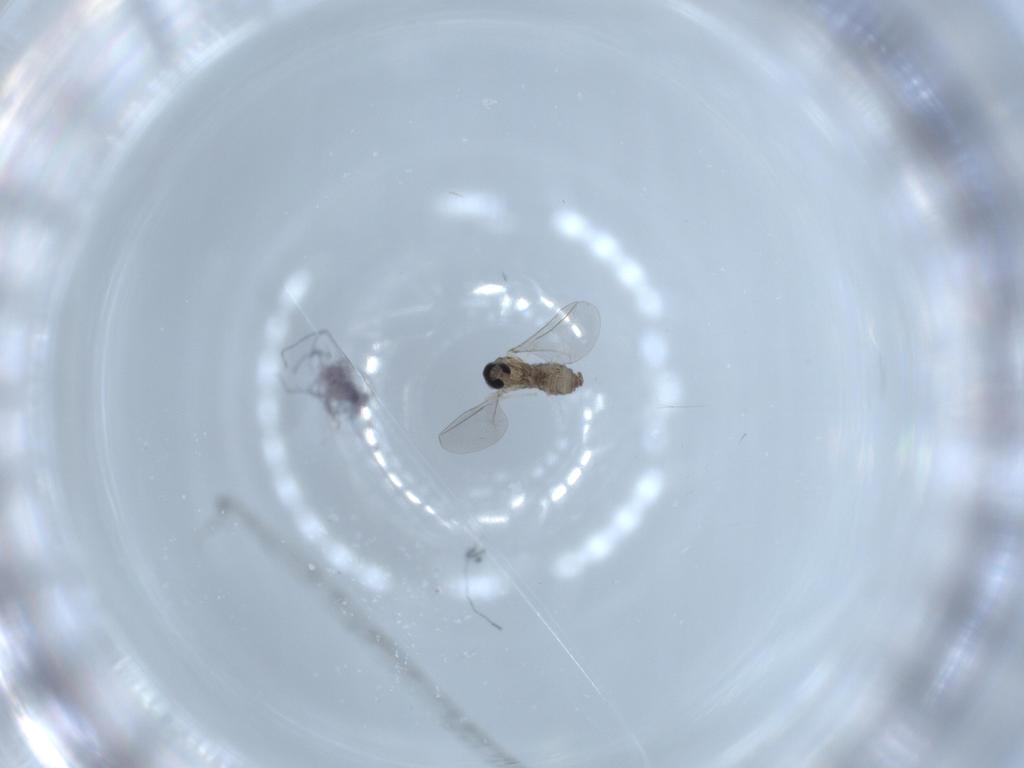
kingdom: Animalia
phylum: Arthropoda
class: Insecta
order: Diptera
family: Cecidomyiidae
